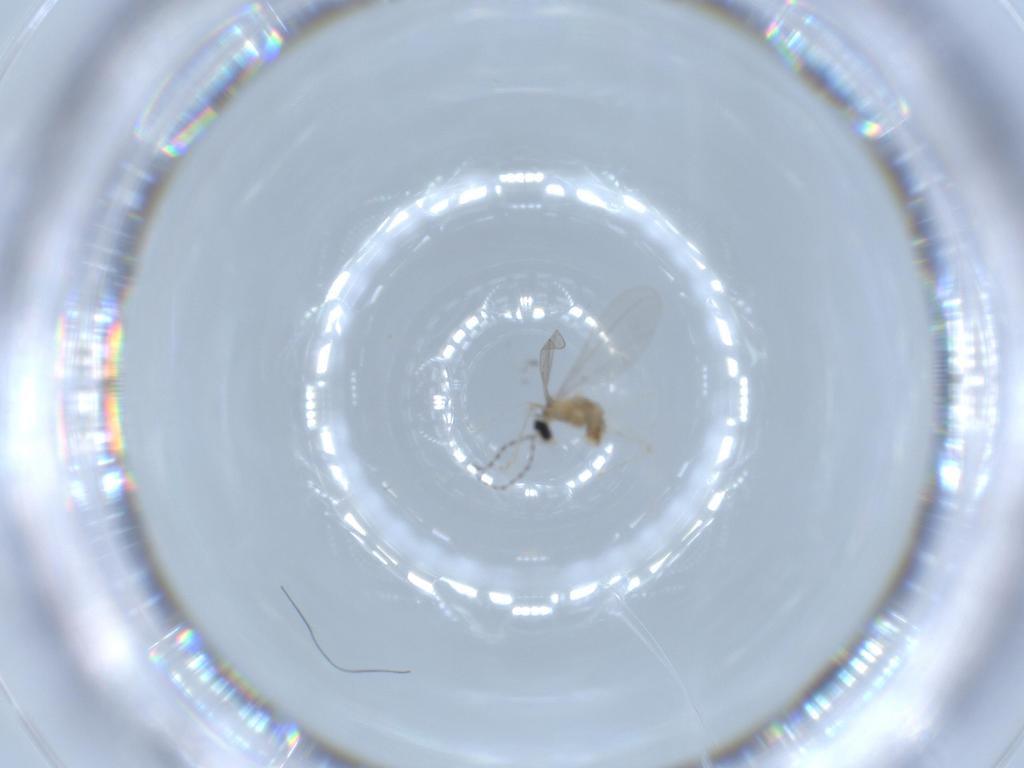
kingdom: Animalia
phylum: Arthropoda
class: Insecta
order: Diptera
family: Cecidomyiidae
